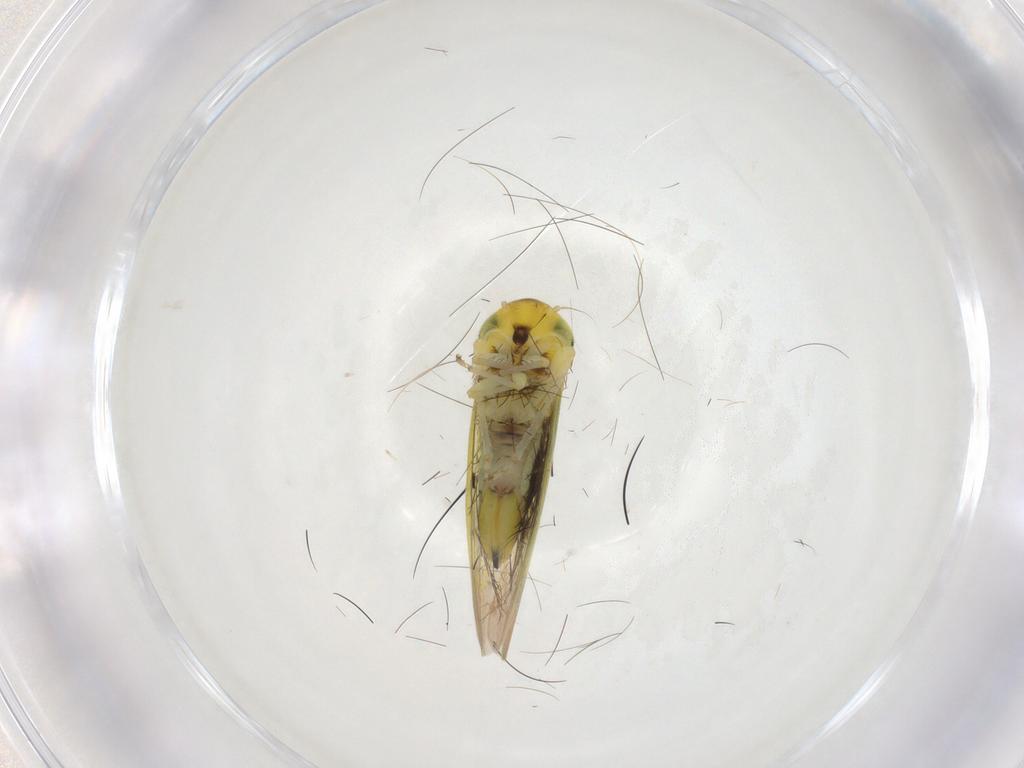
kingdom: Animalia
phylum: Arthropoda
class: Insecta
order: Hemiptera
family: Cicadellidae
